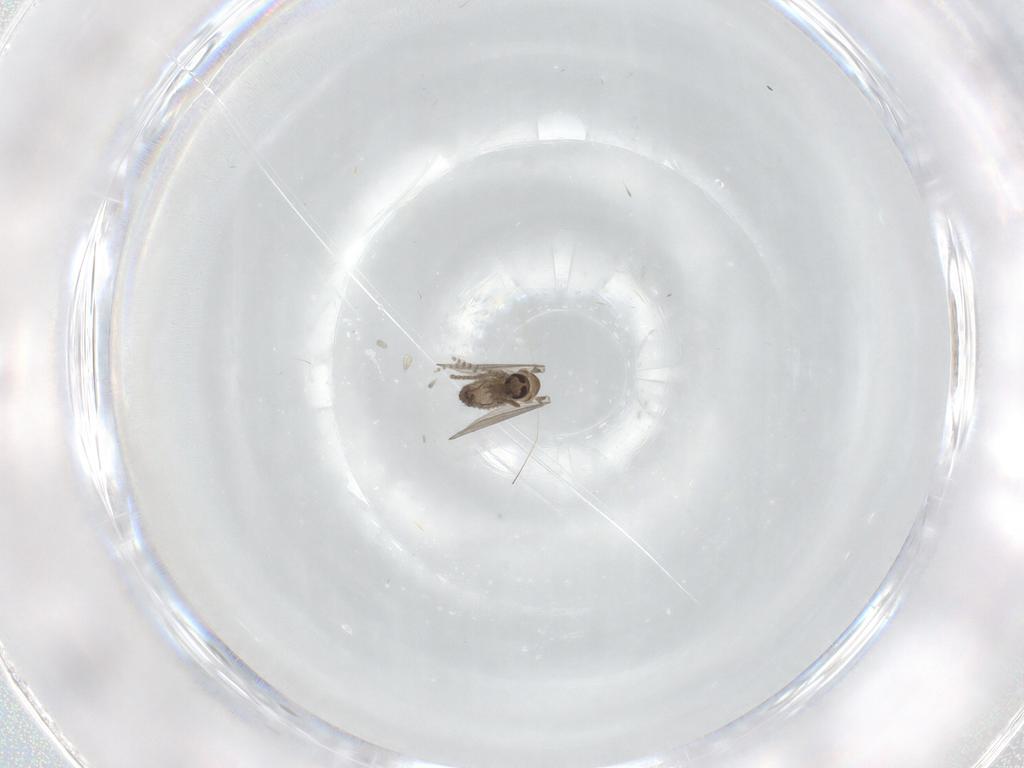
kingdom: Animalia
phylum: Arthropoda
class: Insecta
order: Diptera
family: Psychodidae
